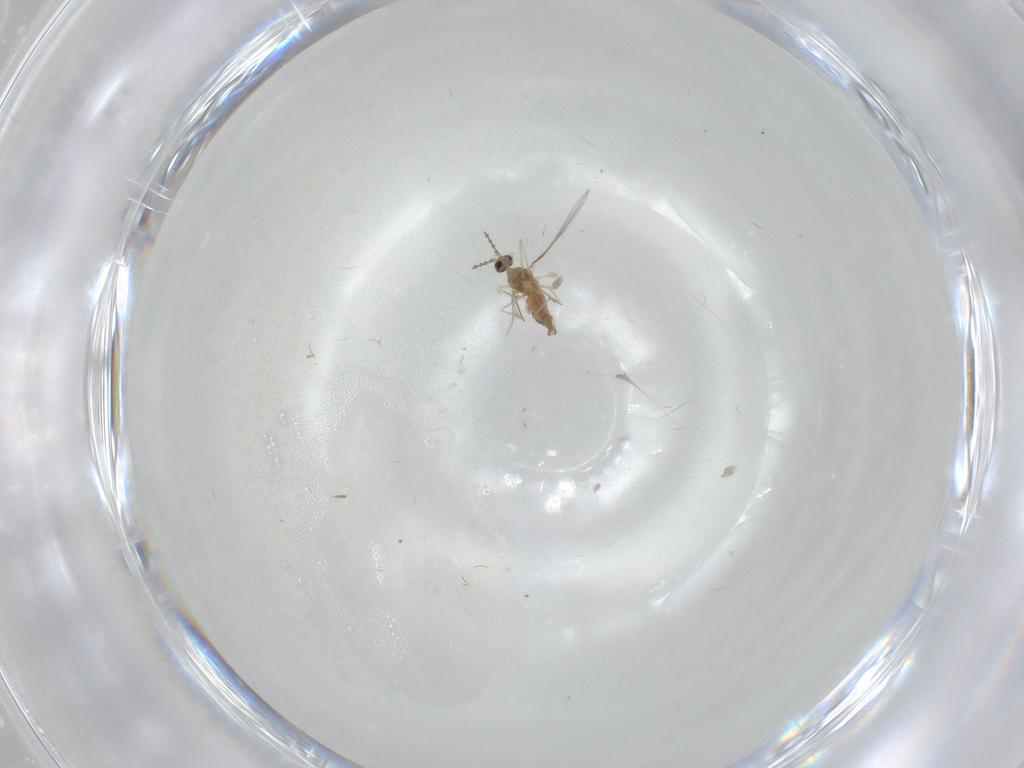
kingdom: Animalia
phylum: Arthropoda
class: Insecta
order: Diptera
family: Cecidomyiidae
